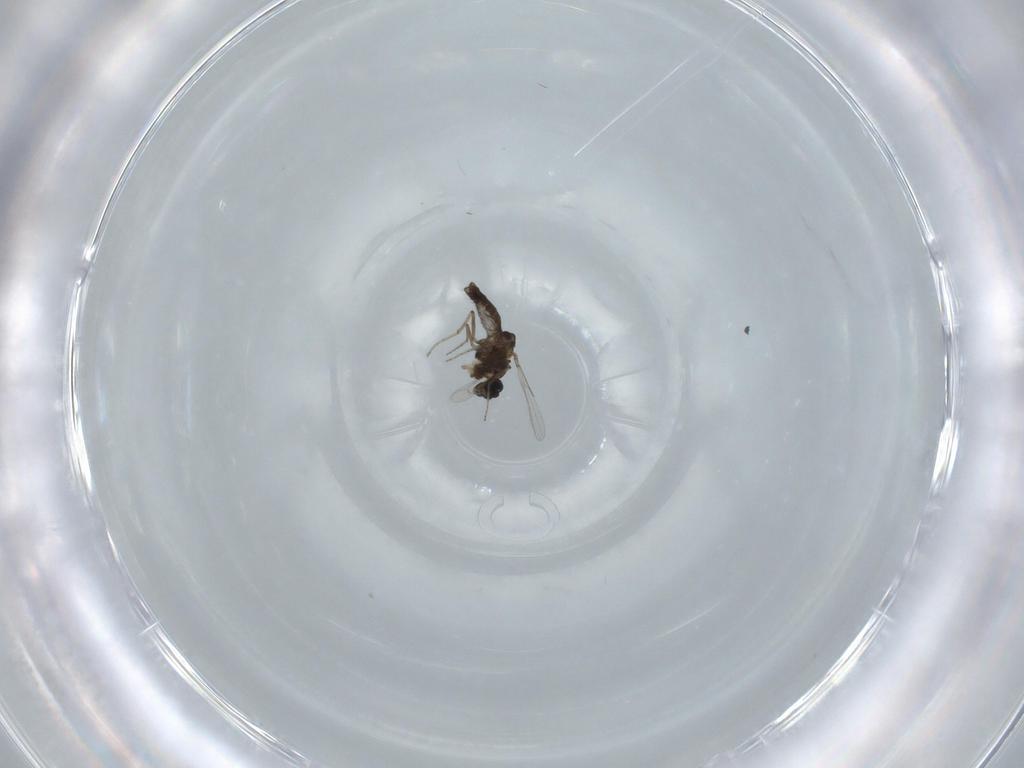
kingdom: Animalia
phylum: Arthropoda
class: Insecta
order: Diptera
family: Ceratopogonidae
